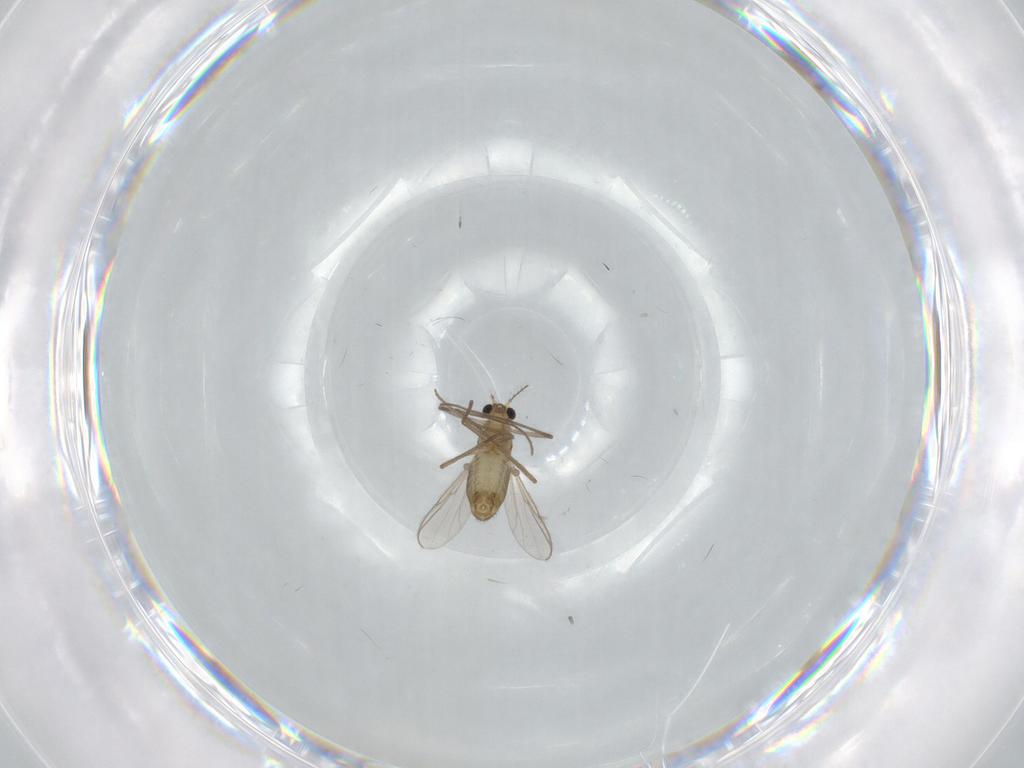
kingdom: Animalia
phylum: Arthropoda
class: Insecta
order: Diptera
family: Chironomidae
